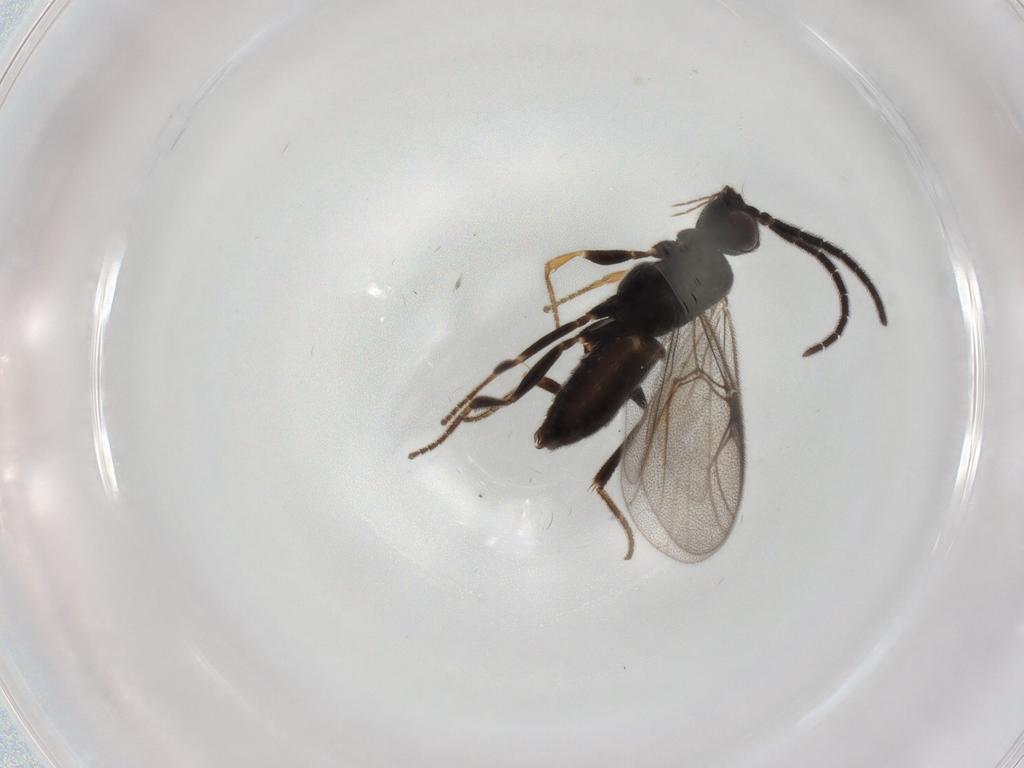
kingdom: Animalia
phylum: Arthropoda
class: Insecta
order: Hymenoptera
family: Dryinidae
